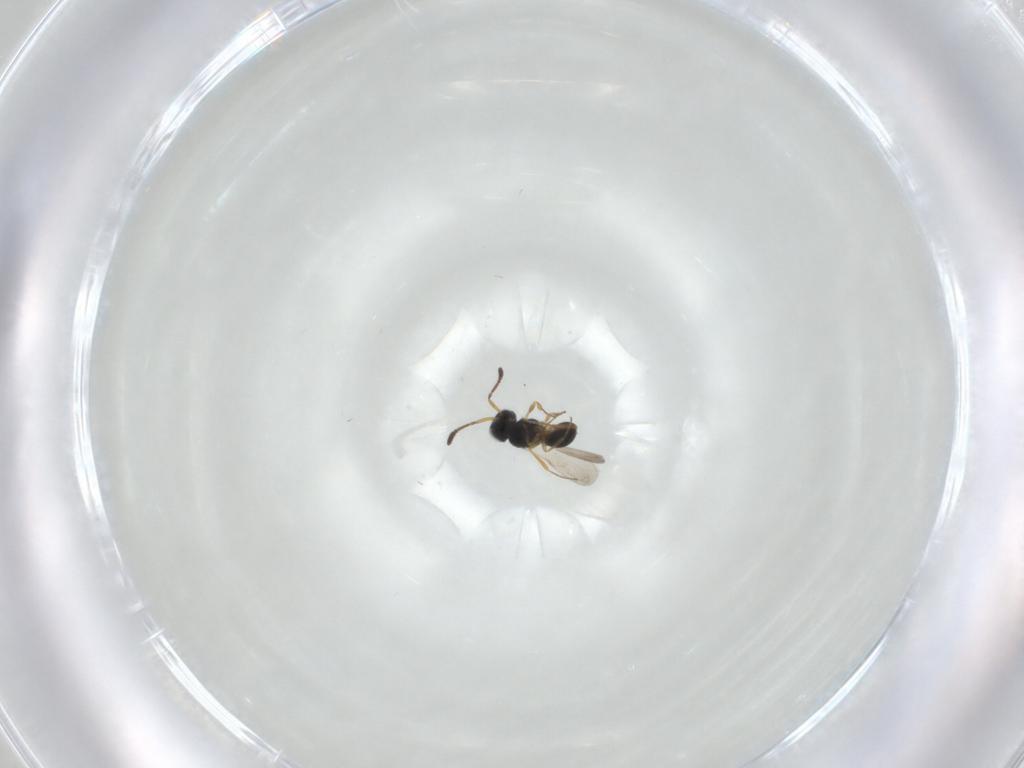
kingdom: Animalia
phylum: Arthropoda
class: Insecta
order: Hymenoptera
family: Scelionidae
